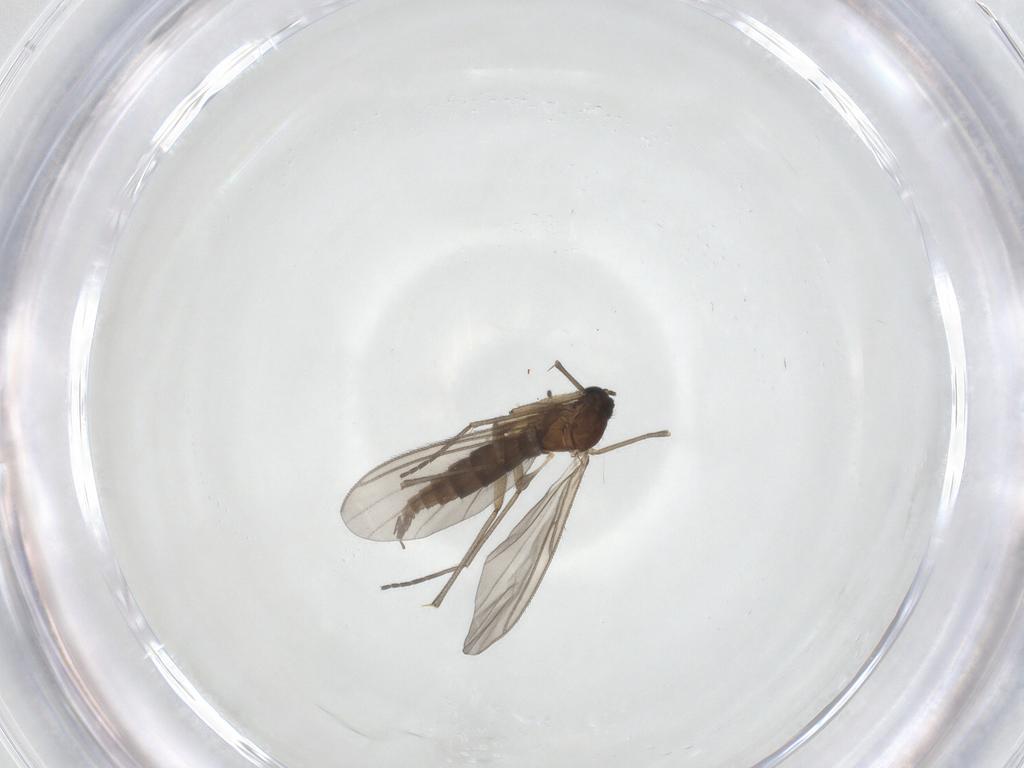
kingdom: Animalia
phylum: Arthropoda
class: Insecta
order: Diptera
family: Sciaridae
